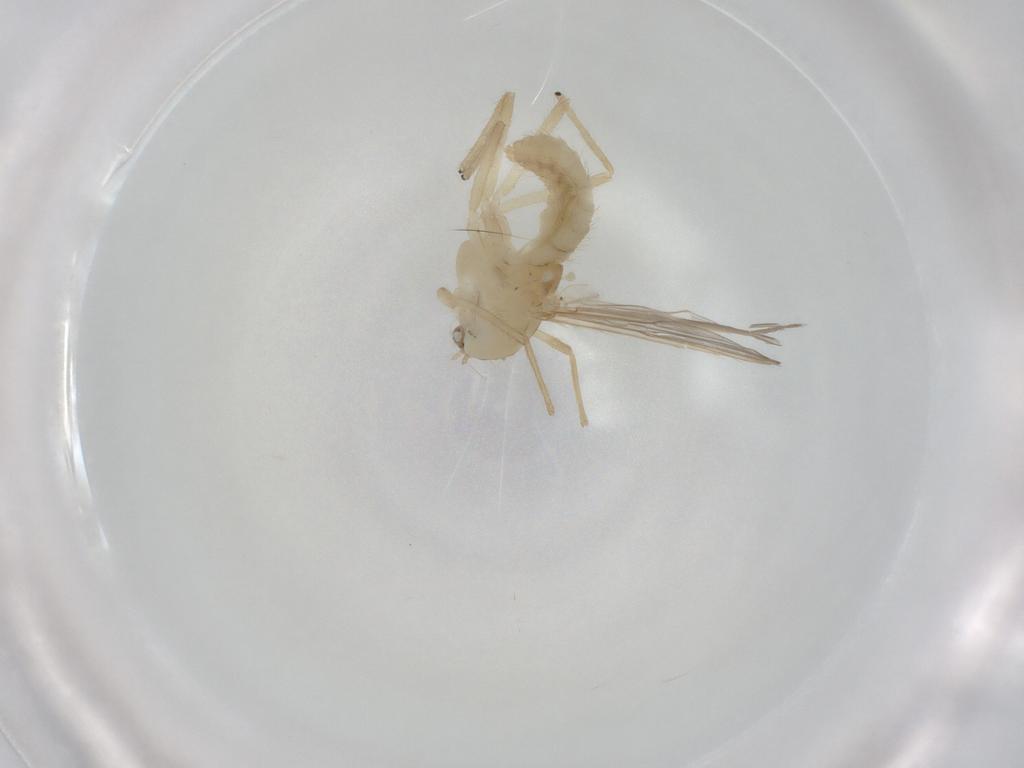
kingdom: Animalia
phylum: Arthropoda
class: Insecta
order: Diptera
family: Chironomidae
